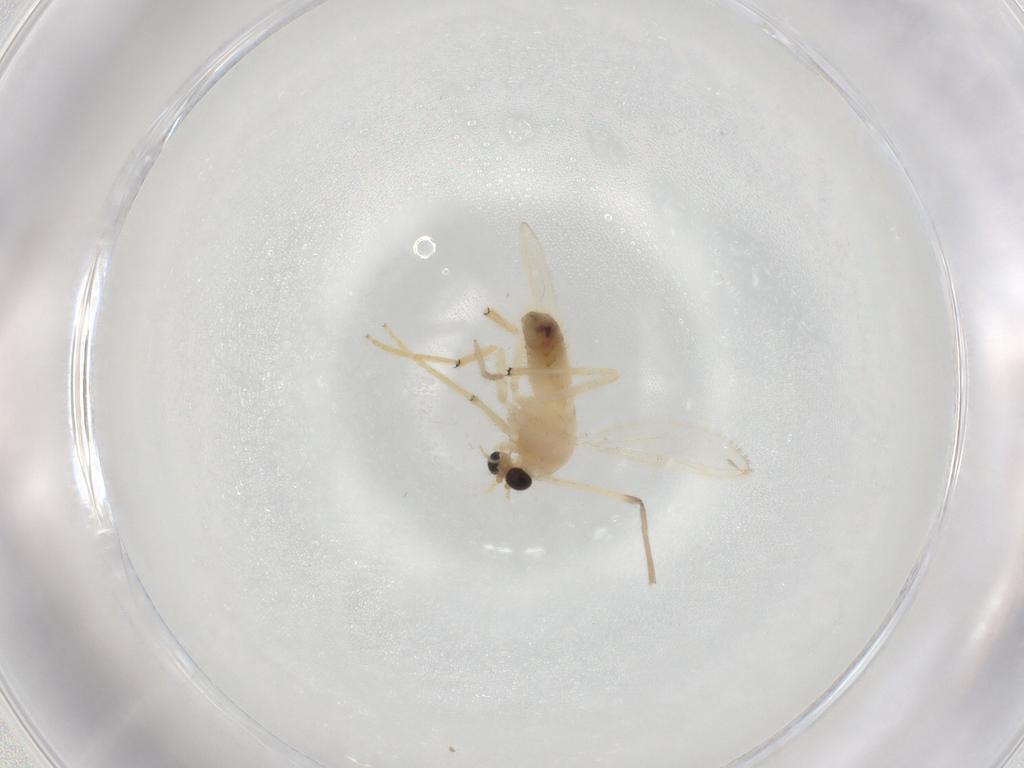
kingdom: Animalia
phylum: Arthropoda
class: Insecta
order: Diptera
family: Chironomidae
